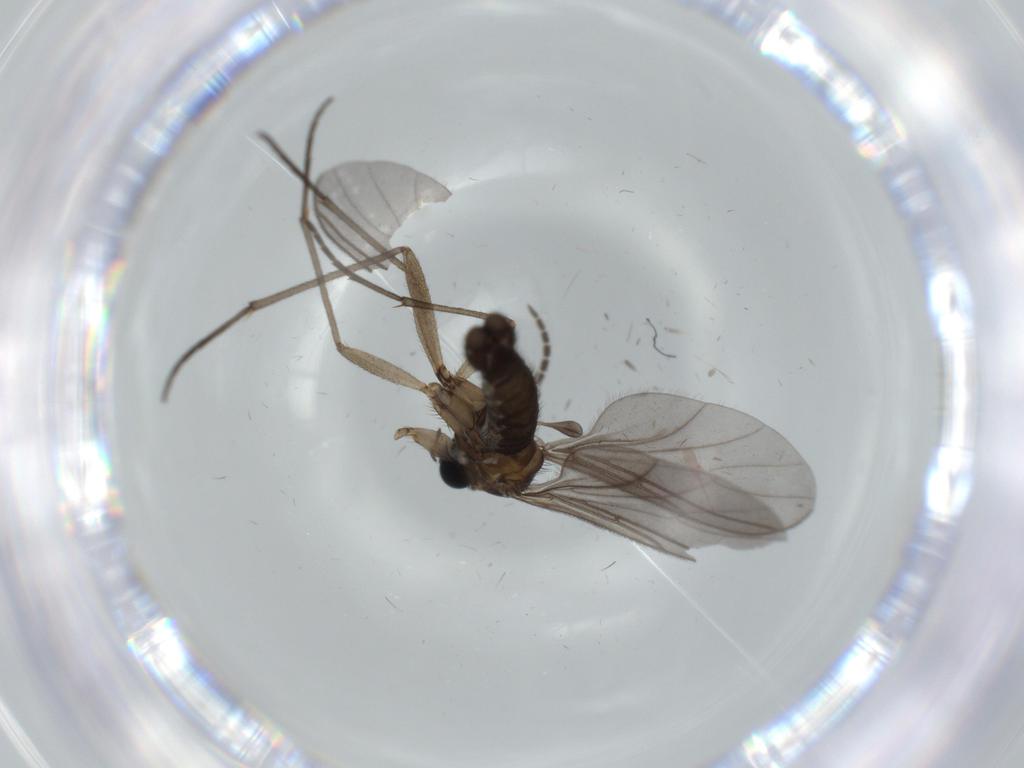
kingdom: Animalia
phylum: Arthropoda
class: Insecta
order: Diptera
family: Sciaridae
